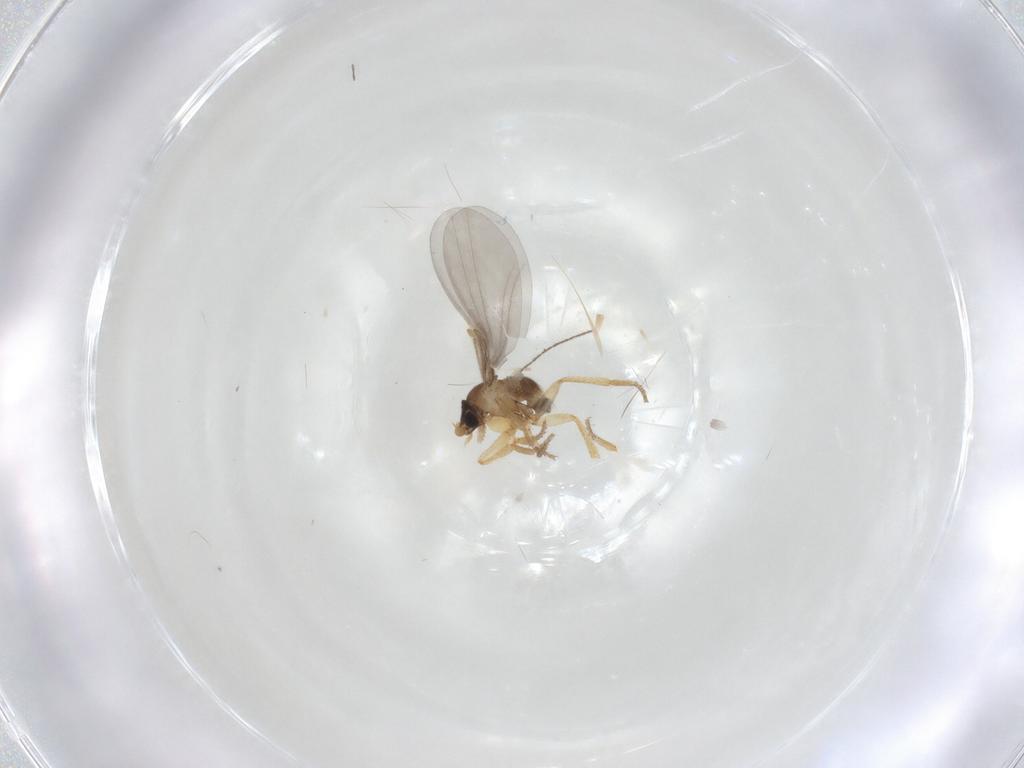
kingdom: Animalia
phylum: Arthropoda
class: Insecta
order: Diptera
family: Phoridae
